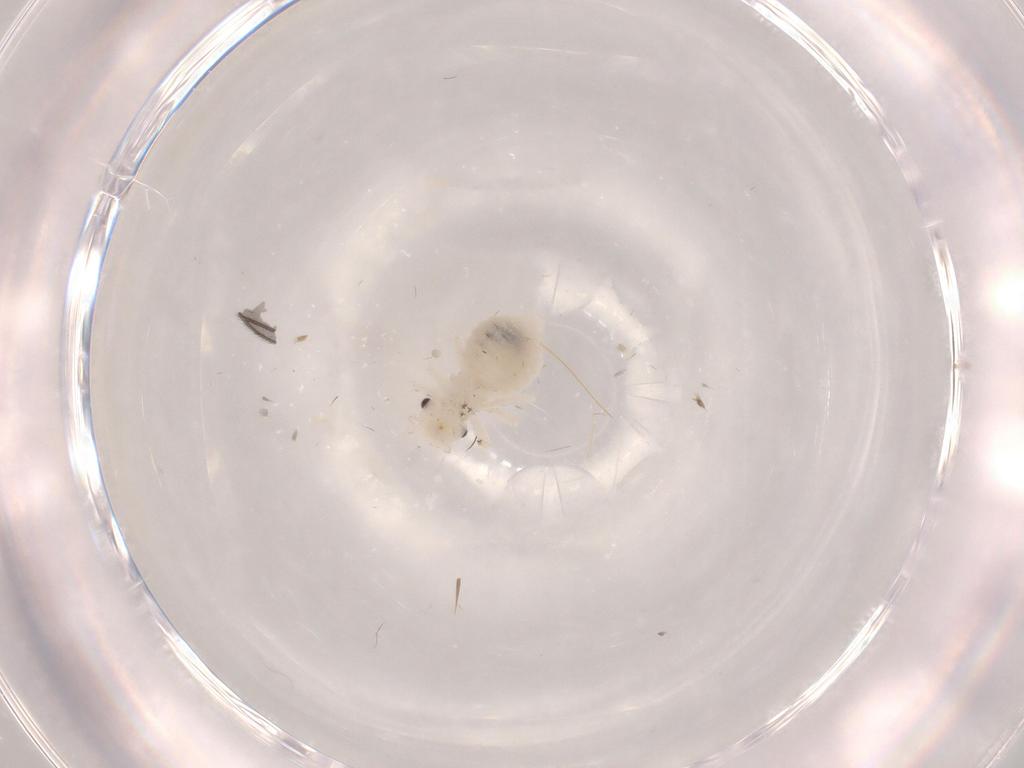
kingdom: Animalia
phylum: Arthropoda
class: Insecta
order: Psocodea
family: Amphipsocidae
